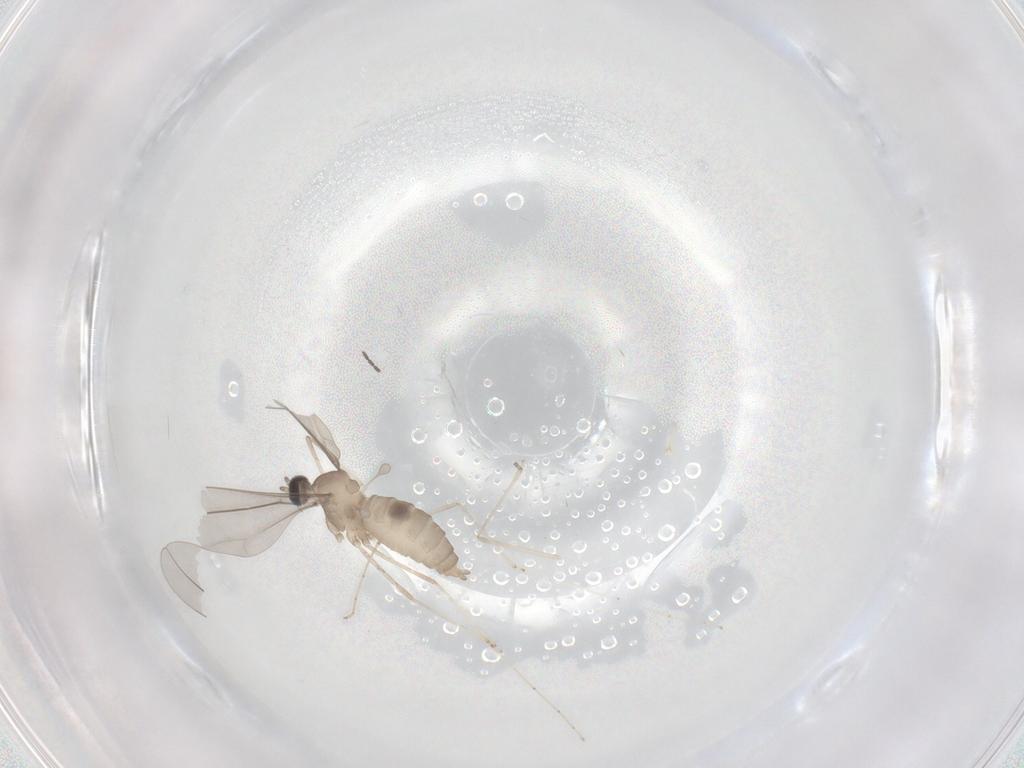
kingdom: Animalia
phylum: Arthropoda
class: Insecta
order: Diptera
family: Cecidomyiidae
